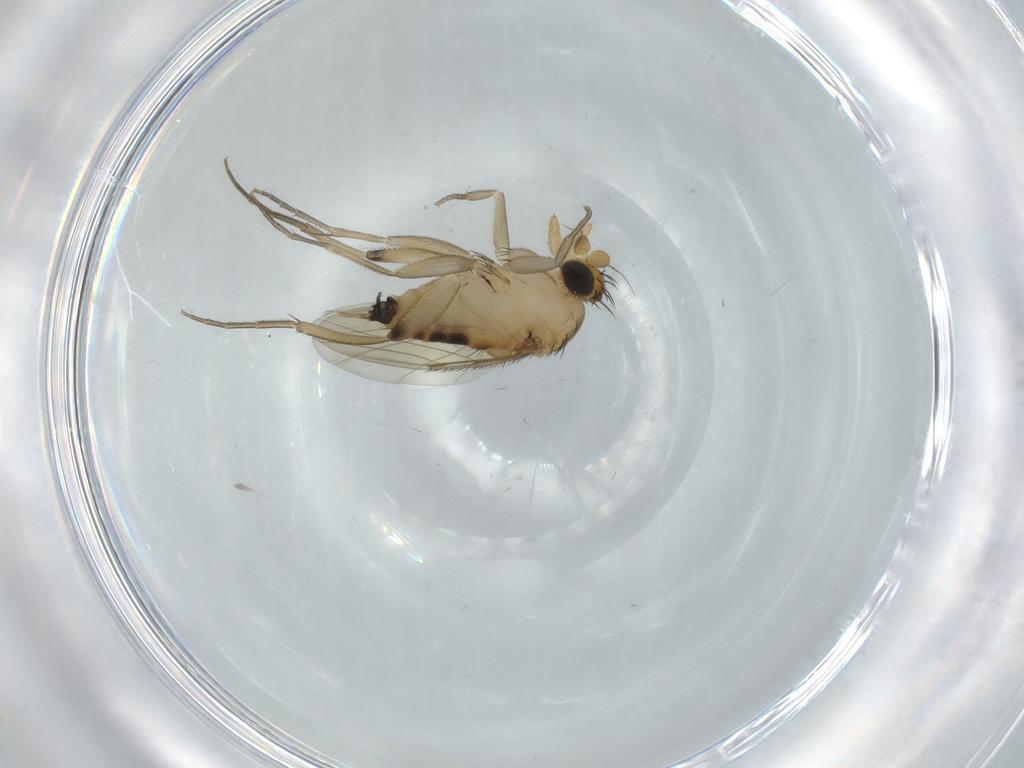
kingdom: Animalia
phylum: Arthropoda
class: Insecta
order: Diptera
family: Phoridae
